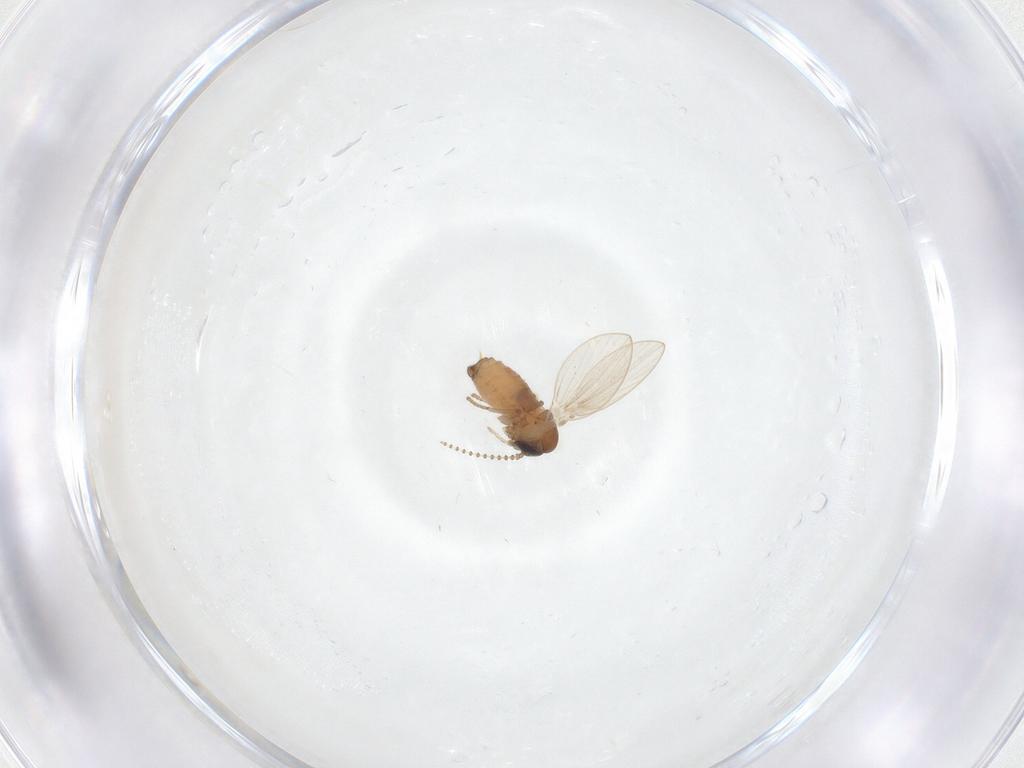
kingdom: Animalia
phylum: Arthropoda
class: Insecta
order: Diptera
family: Psychodidae
